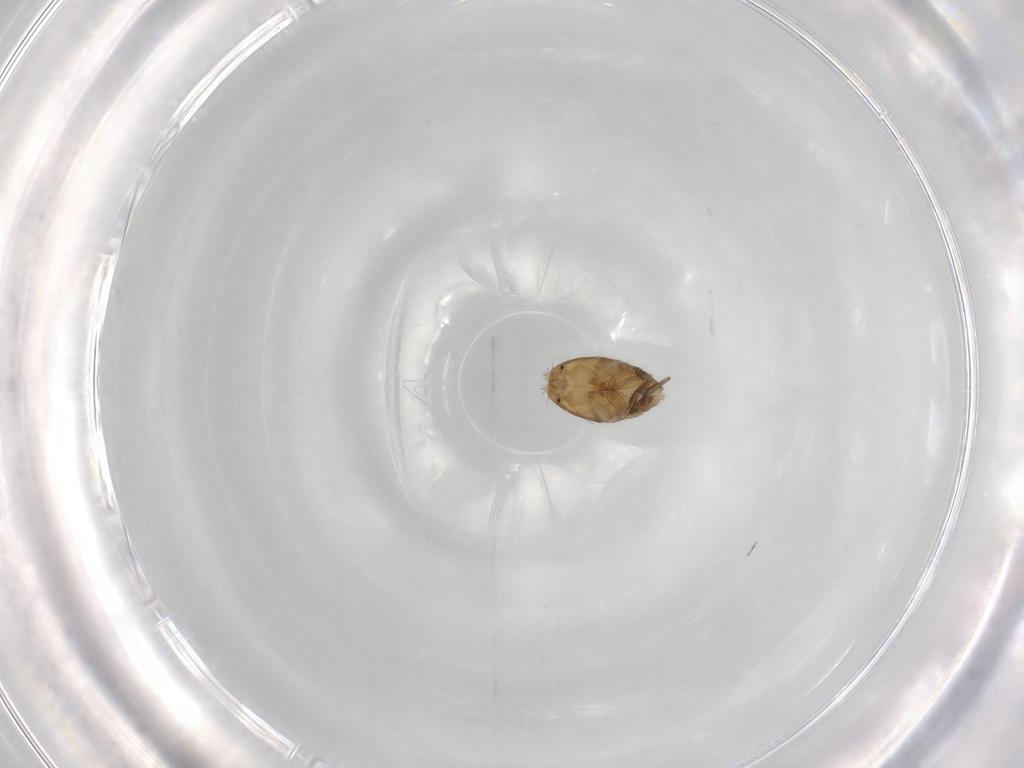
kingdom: Animalia
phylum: Arthropoda
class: Insecta
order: Diptera
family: Phoridae
